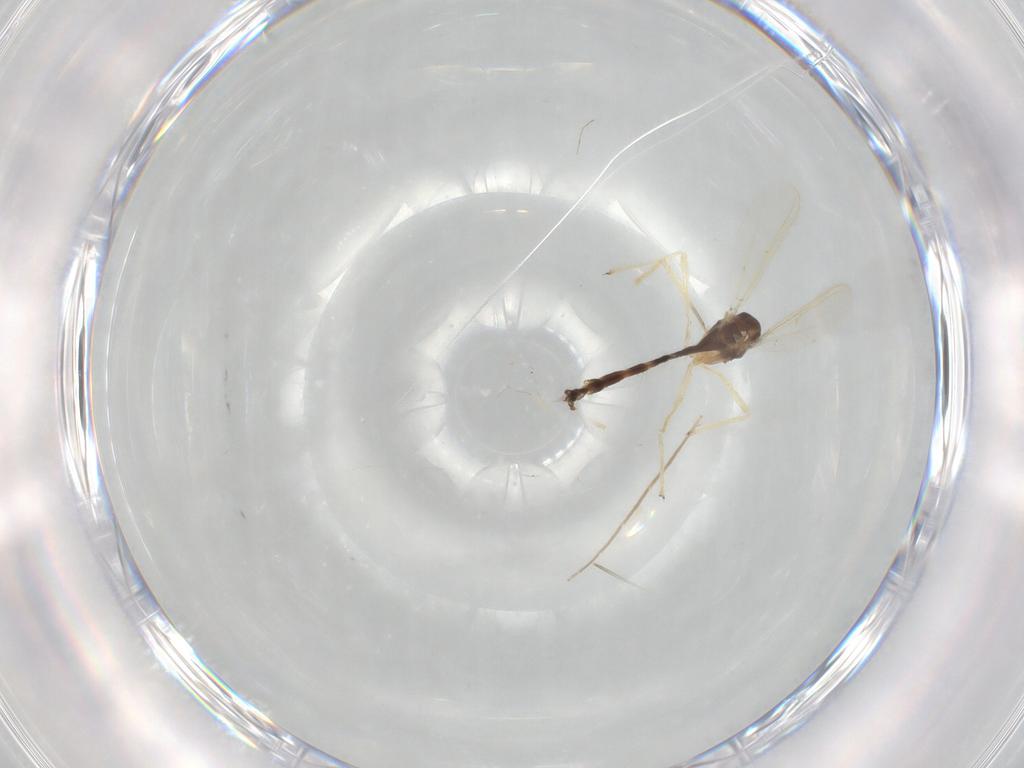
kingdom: Animalia
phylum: Arthropoda
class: Insecta
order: Diptera
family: Chironomidae
